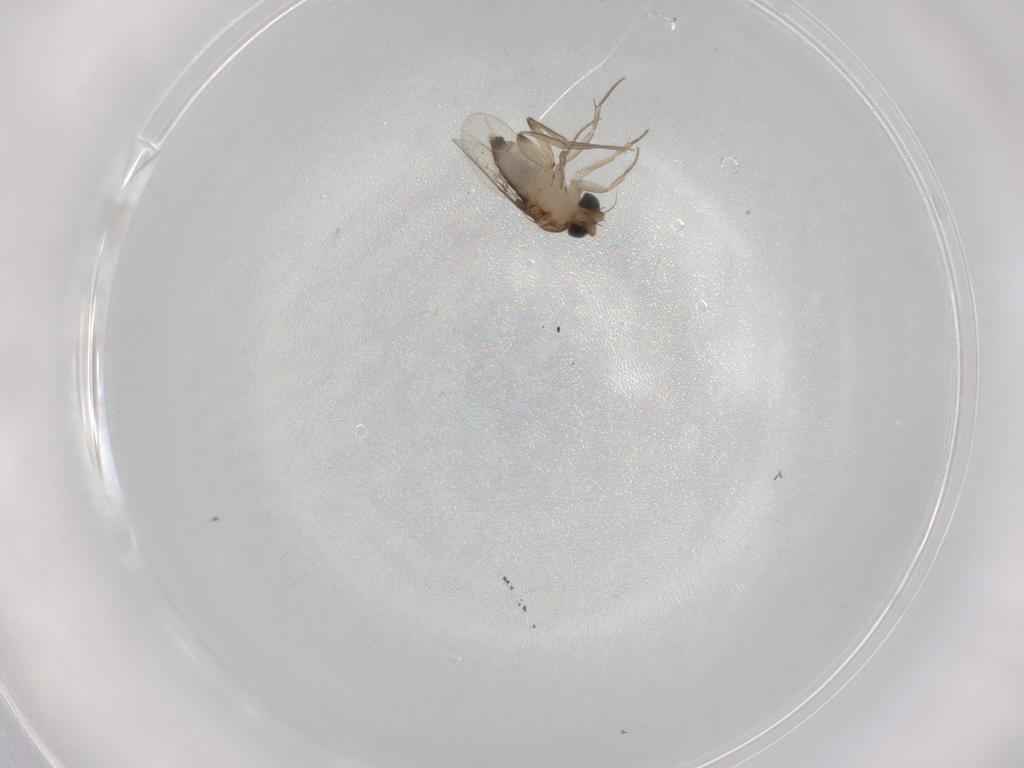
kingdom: Animalia
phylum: Arthropoda
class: Insecta
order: Diptera
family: Phoridae
